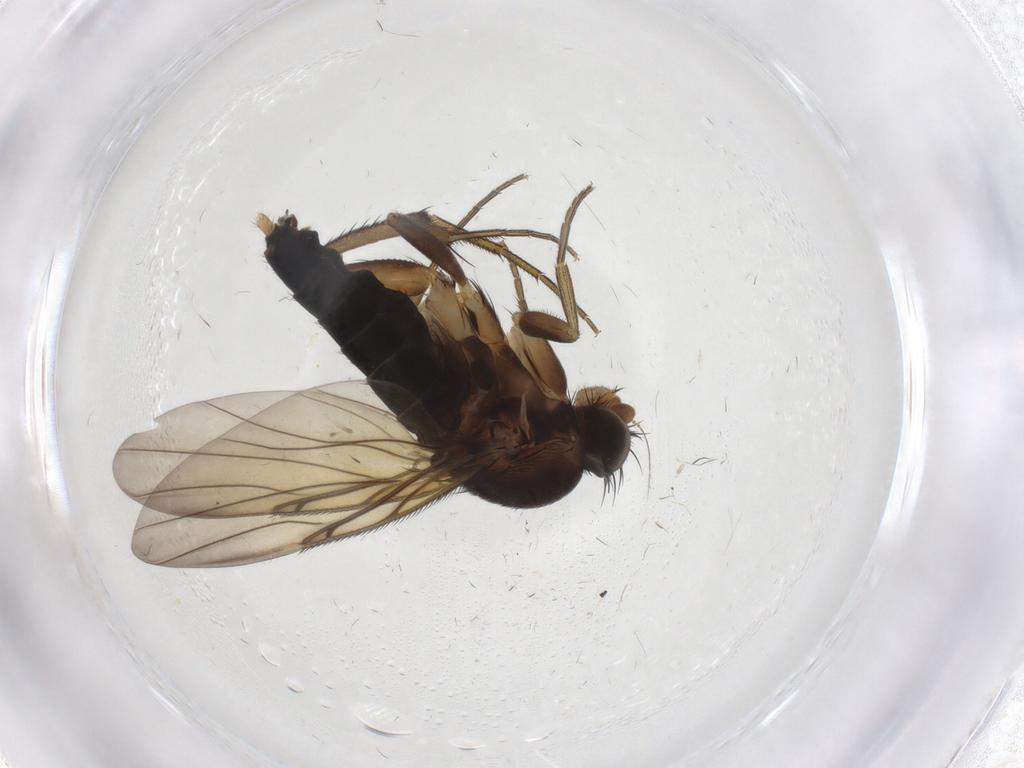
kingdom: Animalia
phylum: Arthropoda
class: Insecta
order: Diptera
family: Phoridae
